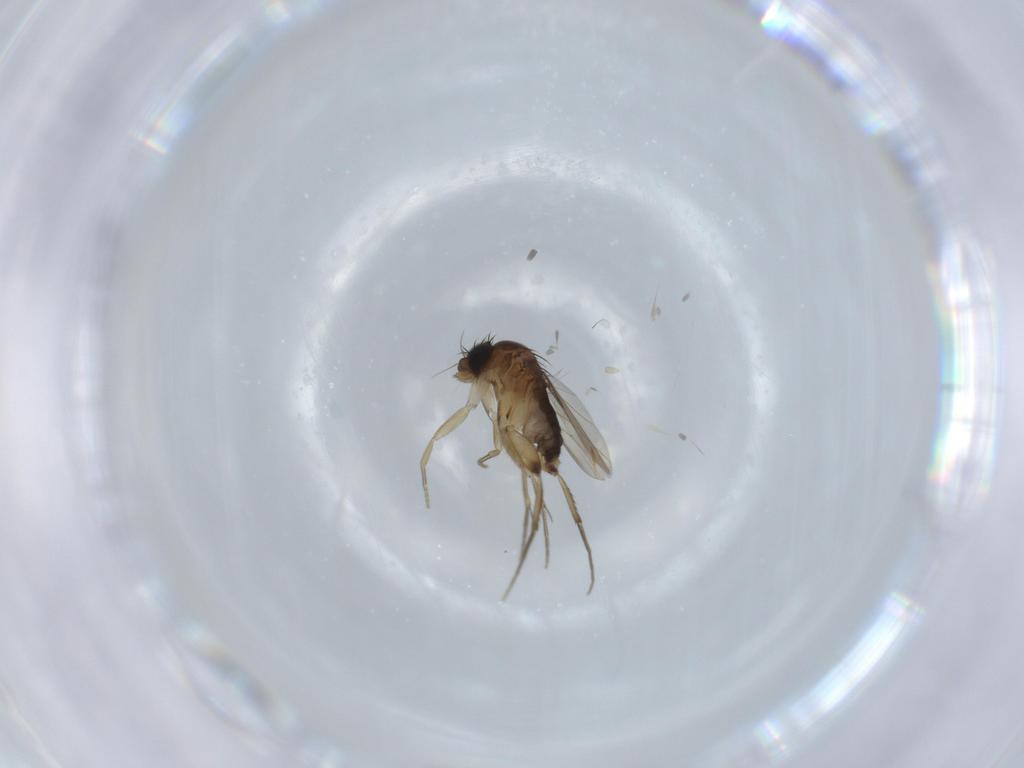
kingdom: Animalia
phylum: Arthropoda
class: Insecta
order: Diptera
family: Phoridae
